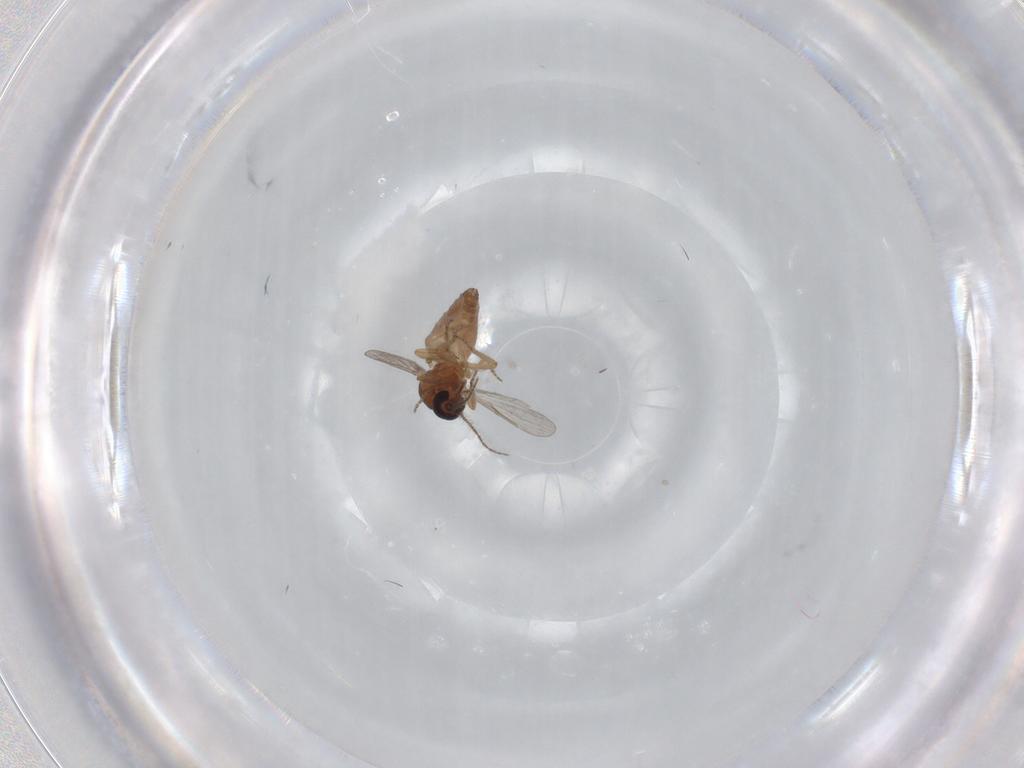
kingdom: Animalia
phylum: Arthropoda
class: Insecta
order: Diptera
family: Ceratopogonidae
